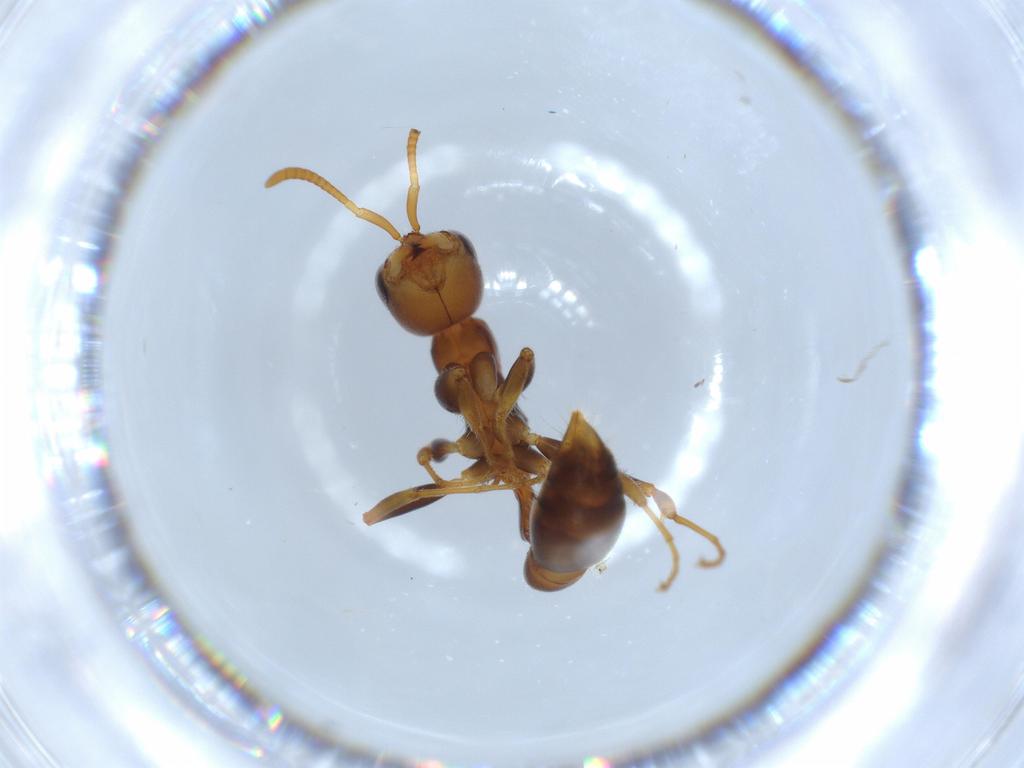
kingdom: Animalia
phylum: Arthropoda
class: Insecta
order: Hymenoptera
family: Formicidae
